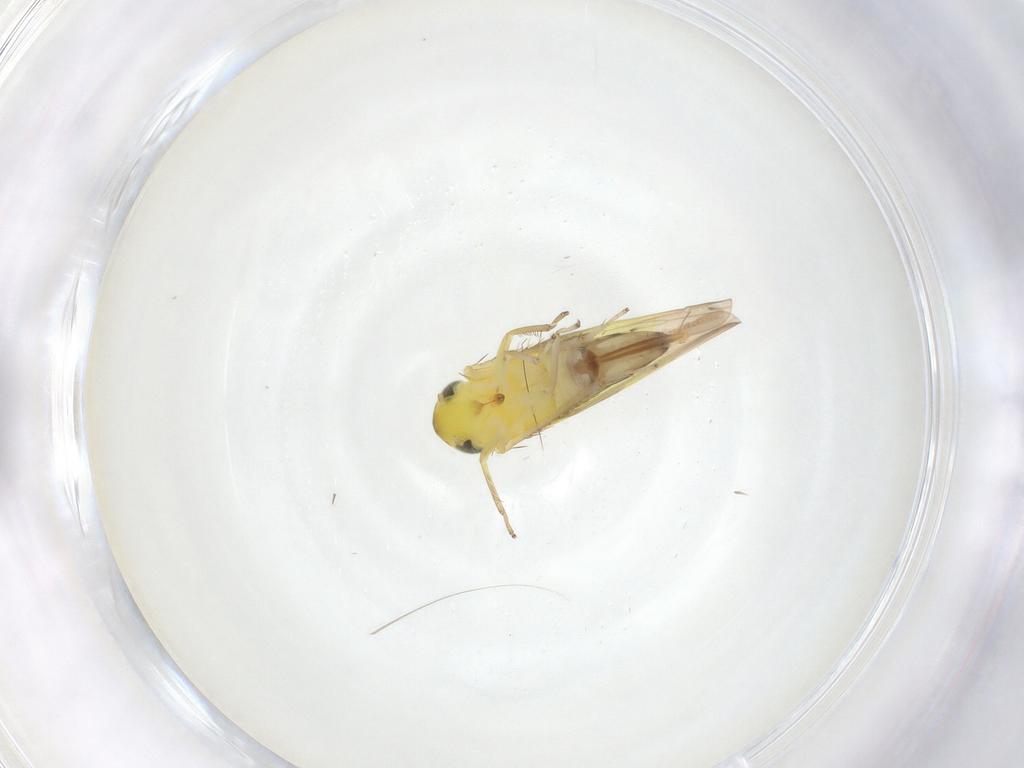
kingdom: Animalia
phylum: Arthropoda
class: Insecta
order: Hemiptera
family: Cicadellidae
